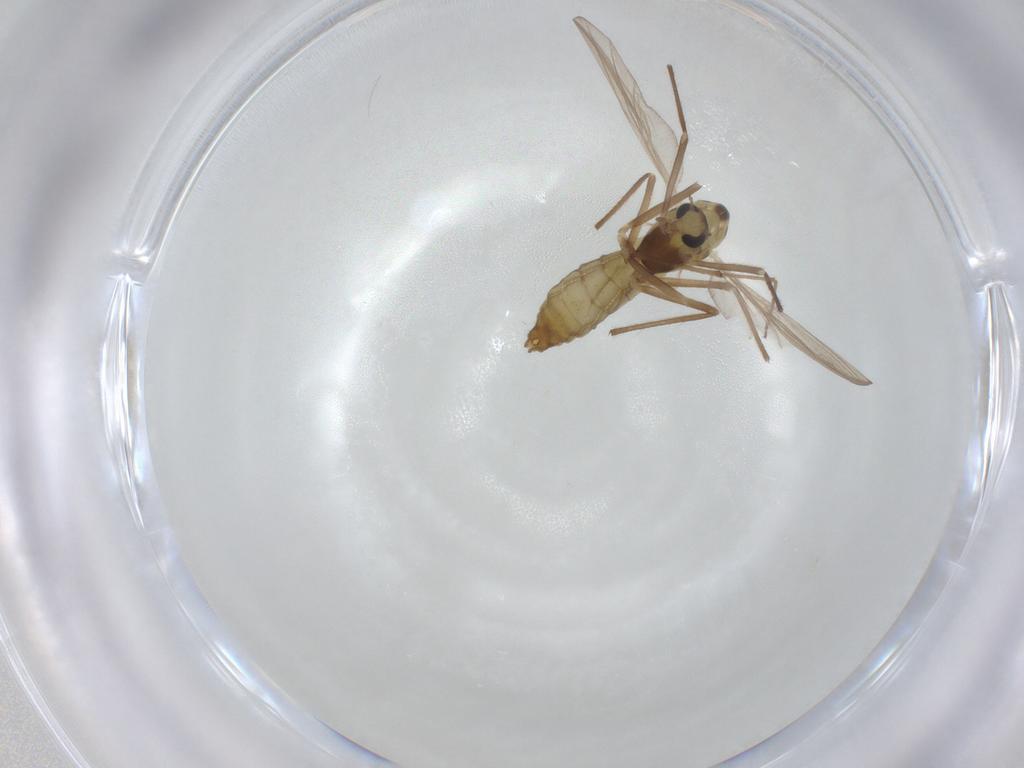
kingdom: Animalia
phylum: Arthropoda
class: Insecta
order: Diptera
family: Chironomidae
